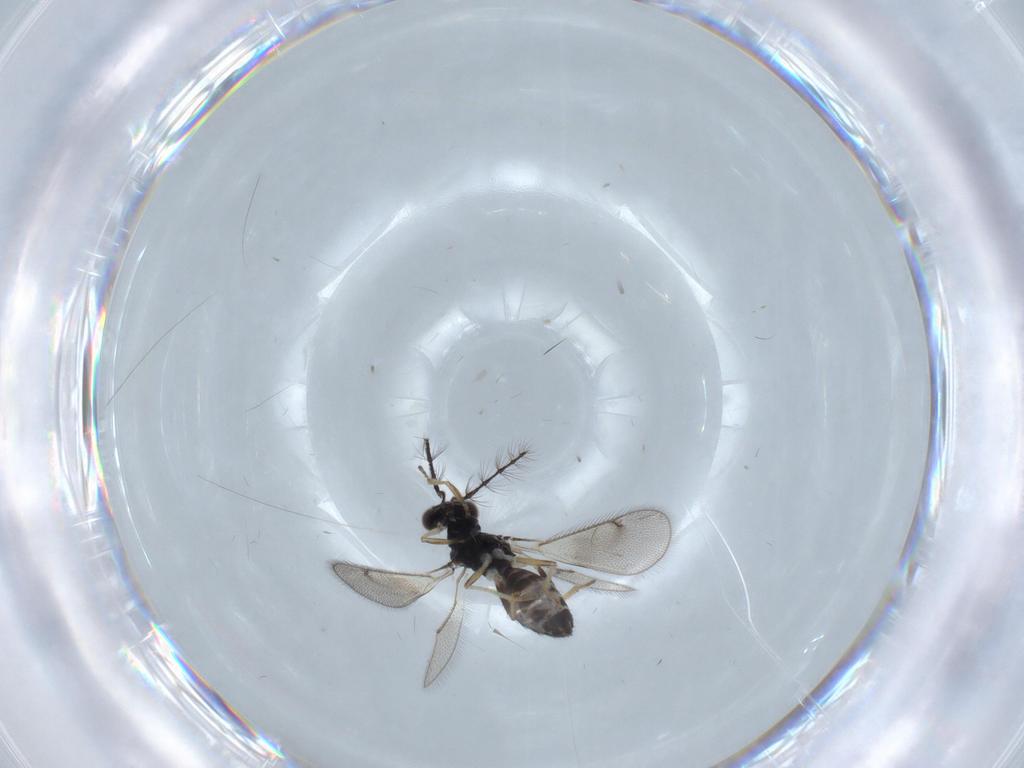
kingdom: Animalia
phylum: Arthropoda
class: Insecta
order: Hymenoptera
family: Eulophidae
